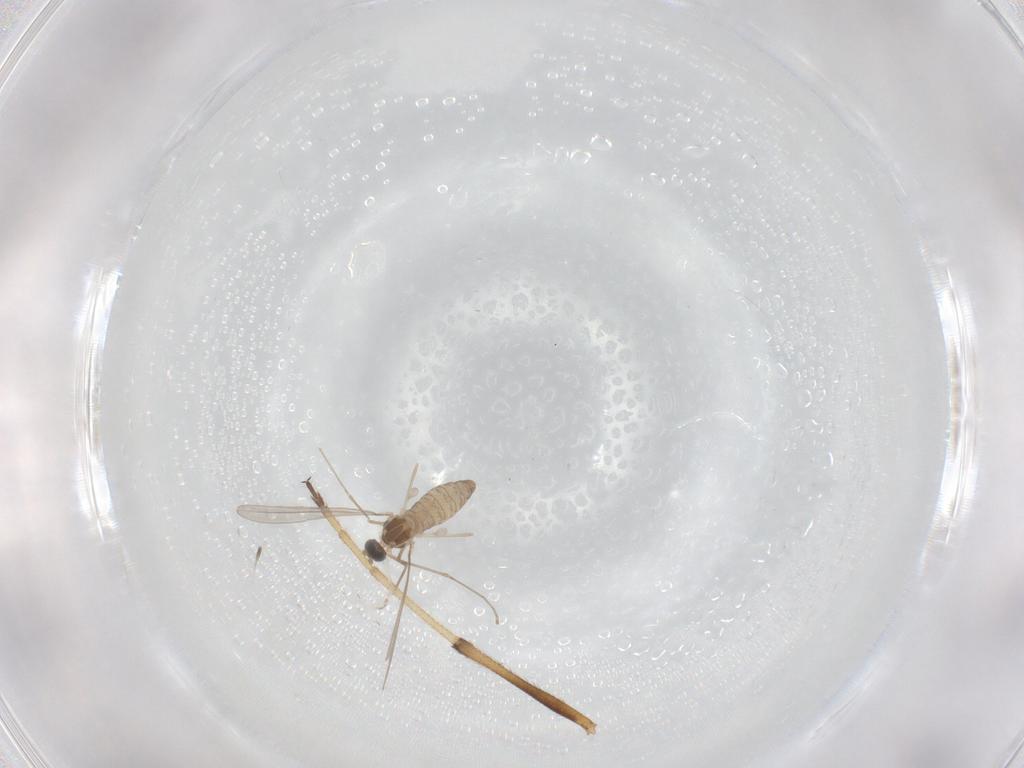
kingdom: Animalia
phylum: Arthropoda
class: Insecta
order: Diptera
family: Cecidomyiidae
